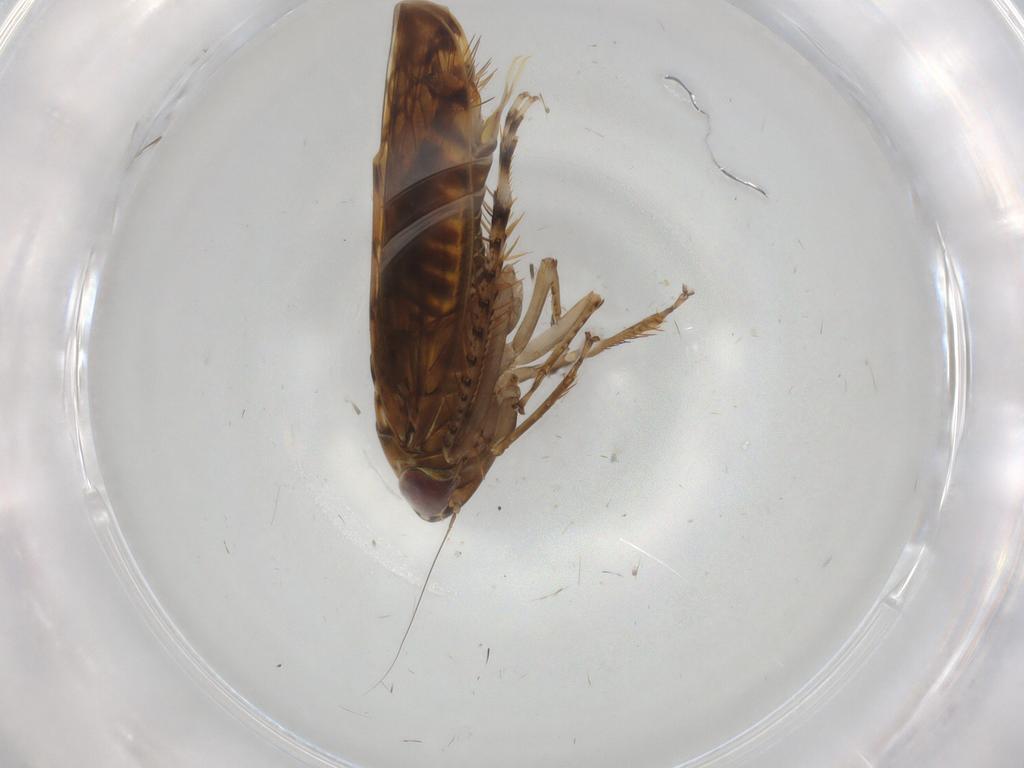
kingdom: Animalia
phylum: Arthropoda
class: Insecta
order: Hemiptera
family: Cicadellidae
